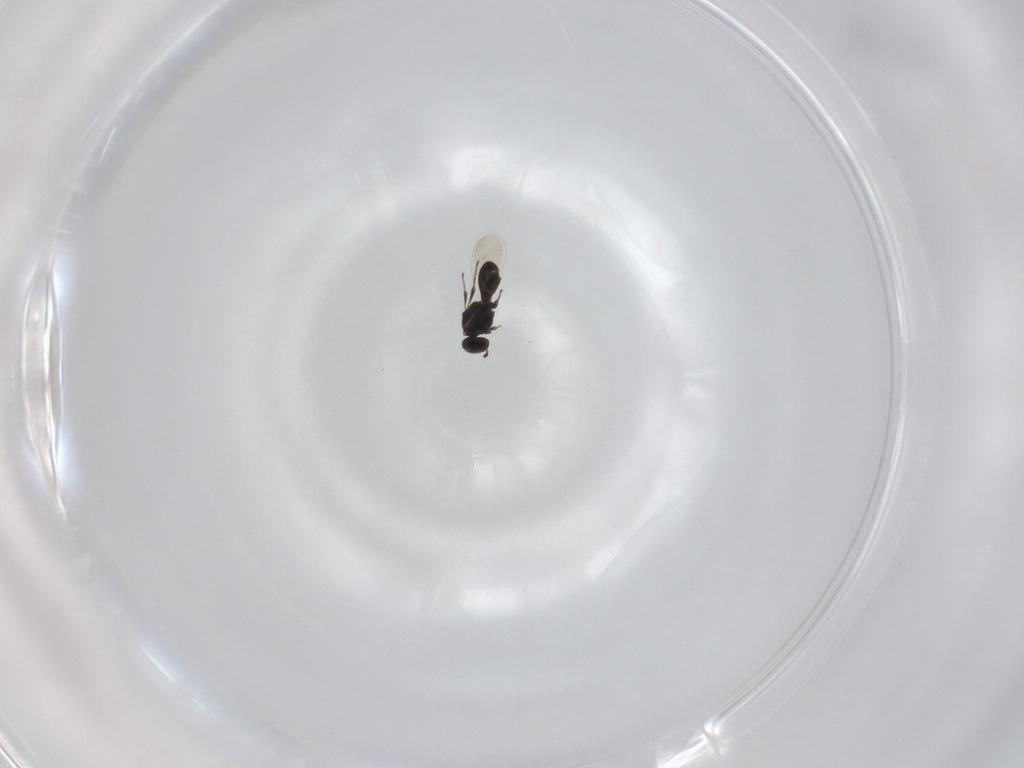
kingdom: Animalia
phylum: Arthropoda
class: Insecta
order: Hymenoptera
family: Platygastridae
